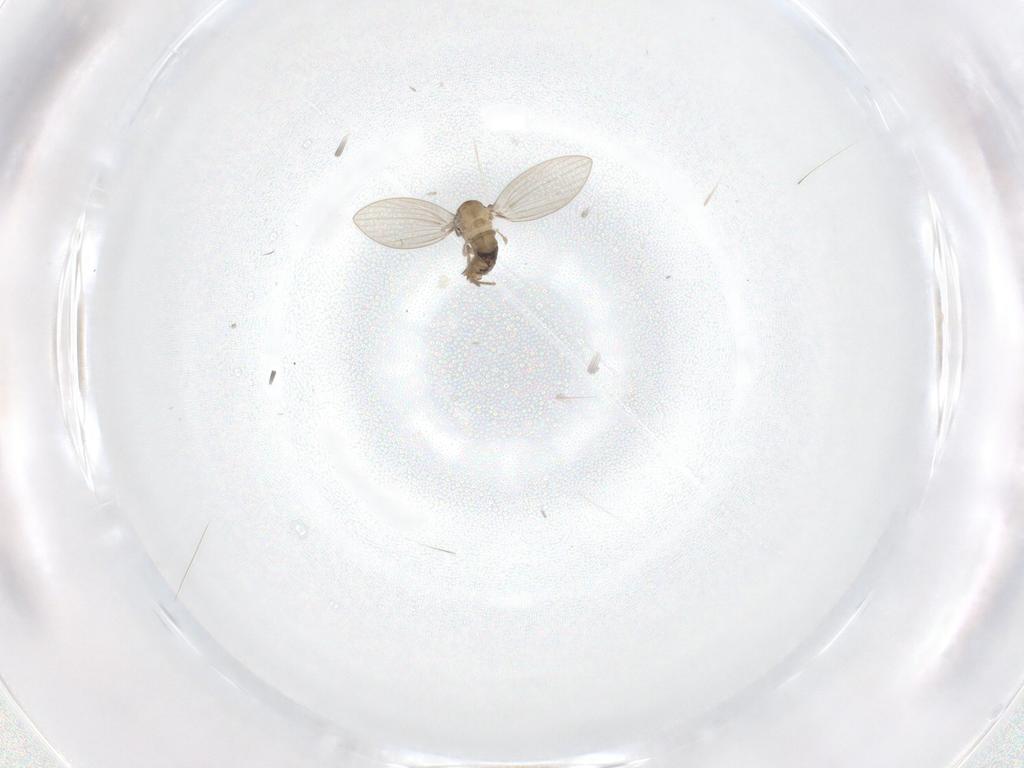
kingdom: Animalia
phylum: Arthropoda
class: Insecta
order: Diptera
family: Psychodidae
